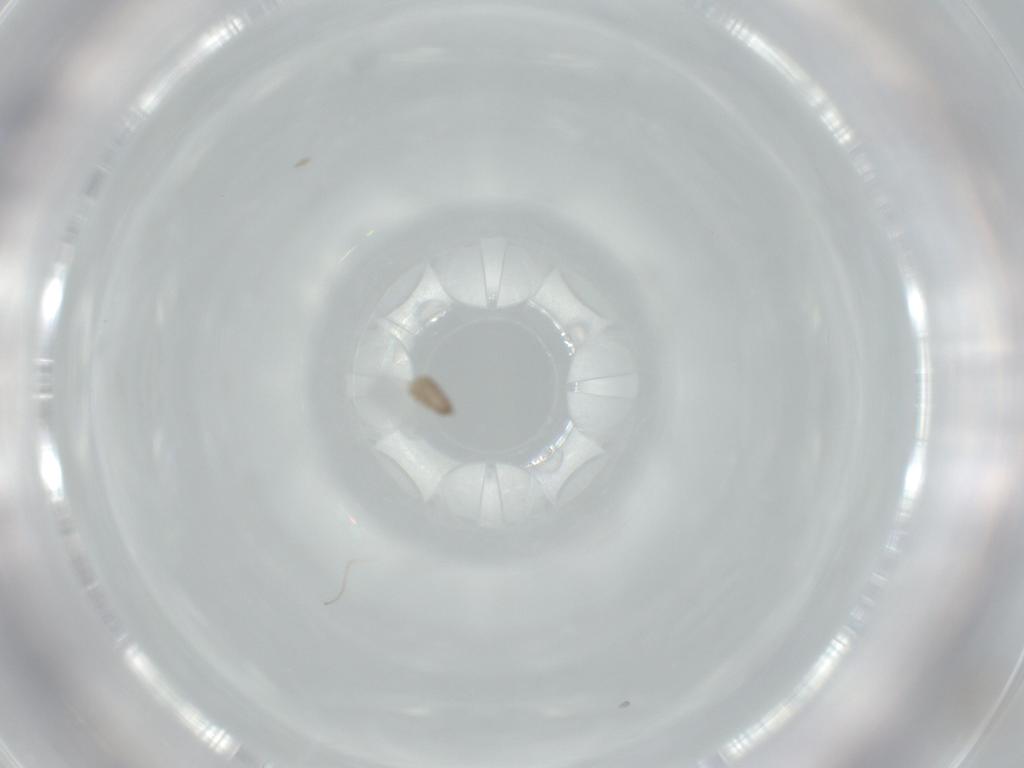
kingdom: Animalia
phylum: Arthropoda
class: Insecta
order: Diptera
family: Cecidomyiidae
